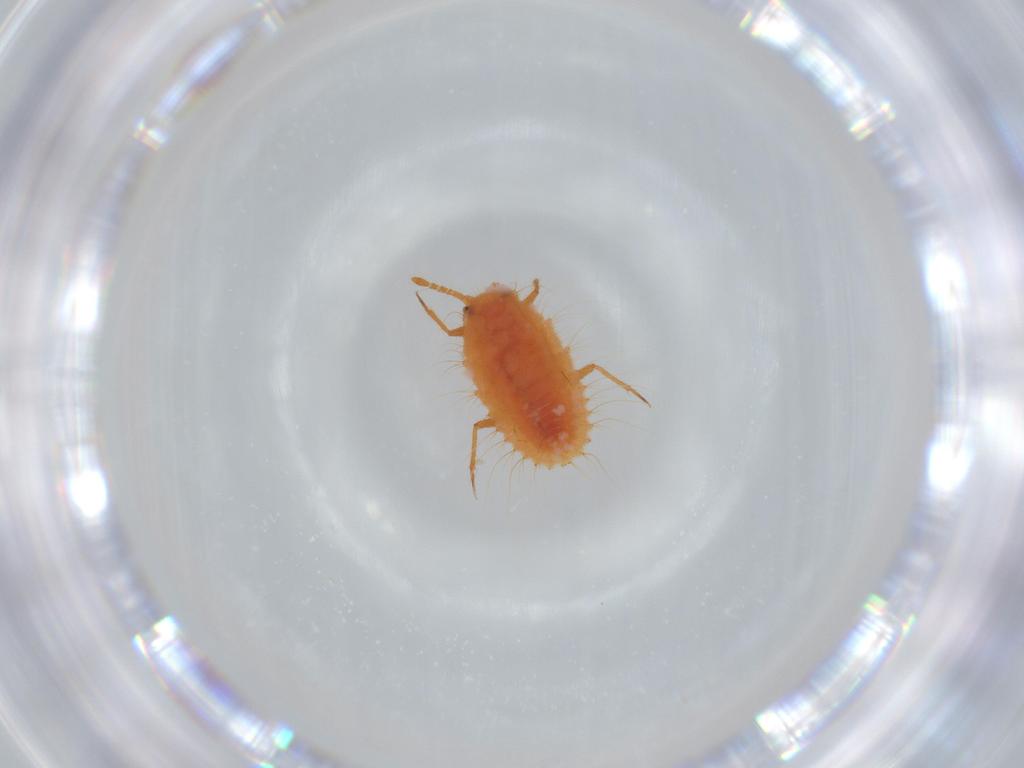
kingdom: Animalia
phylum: Arthropoda
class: Insecta
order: Hemiptera
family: Coccoidea_incertae_sedis
